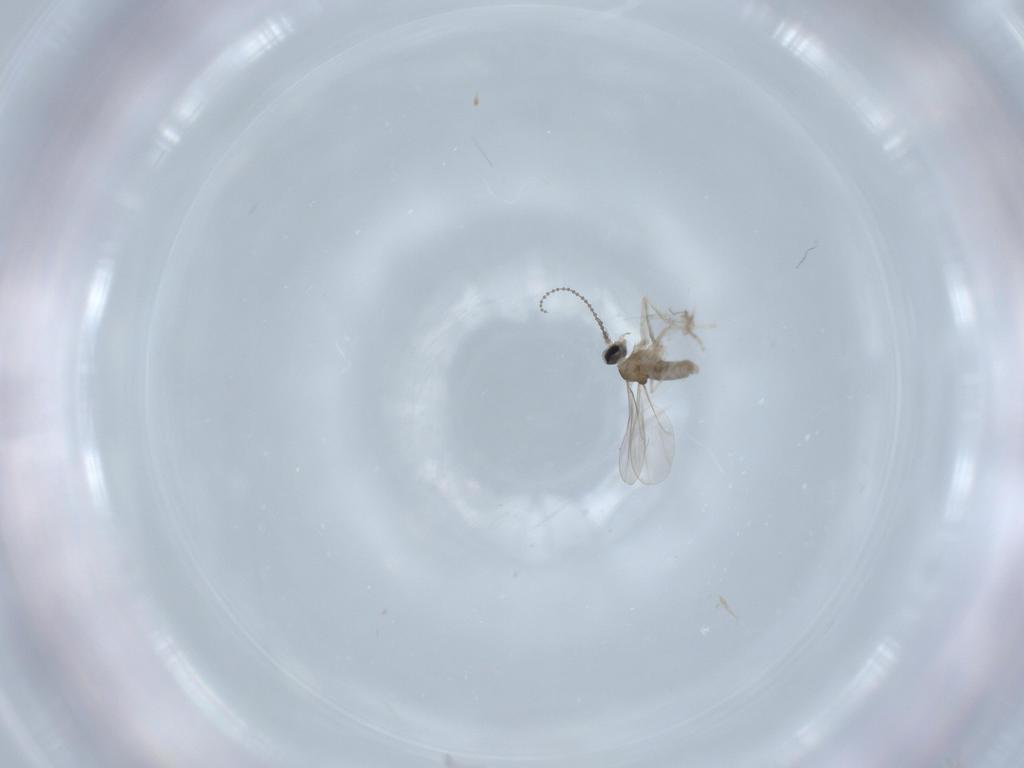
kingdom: Animalia
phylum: Arthropoda
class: Insecta
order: Diptera
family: Cecidomyiidae
